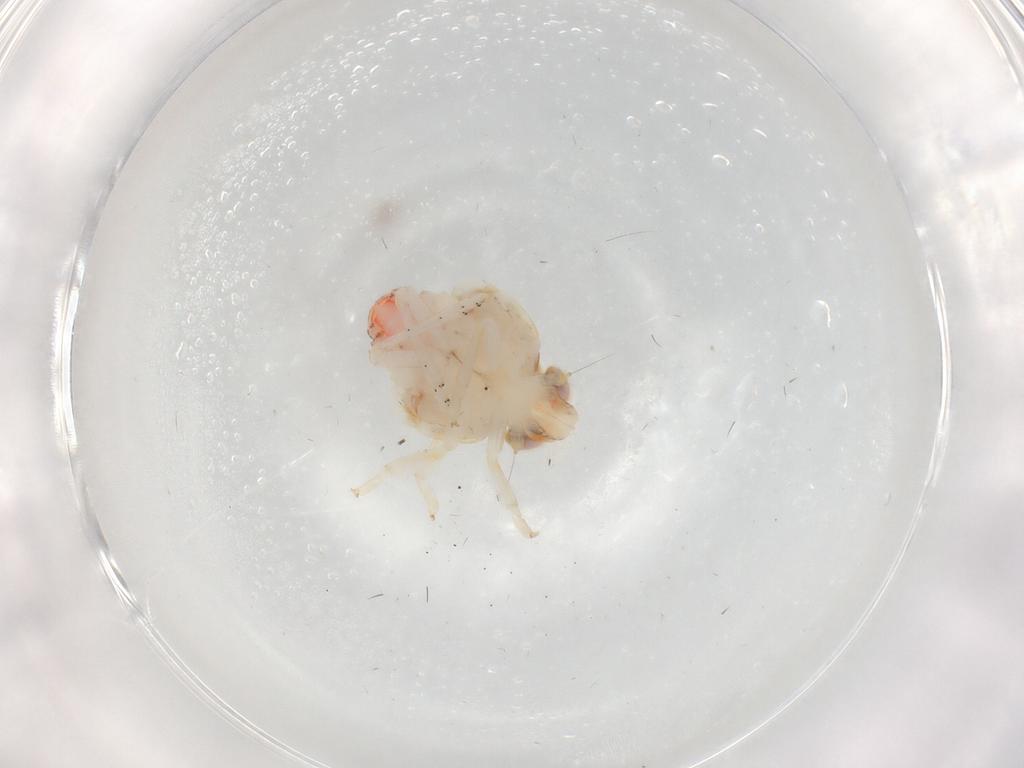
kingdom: Animalia
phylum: Arthropoda
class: Insecta
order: Hemiptera
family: Nogodinidae
